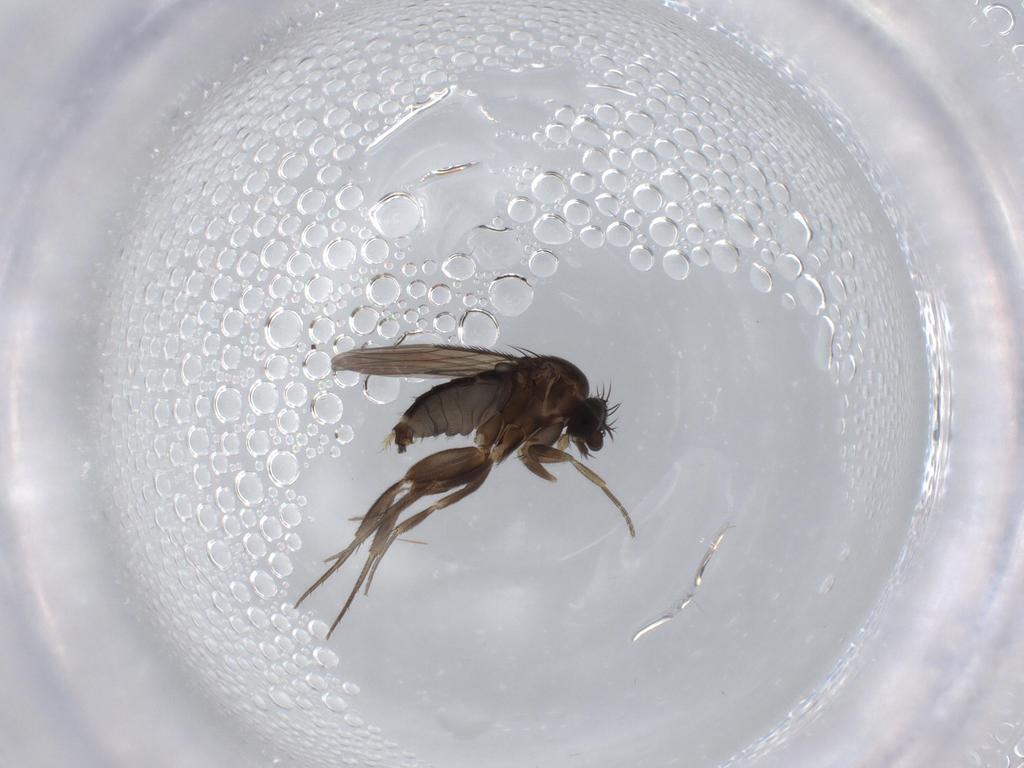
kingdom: Animalia
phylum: Arthropoda
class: Insecta
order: Diptera
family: Phoridae
